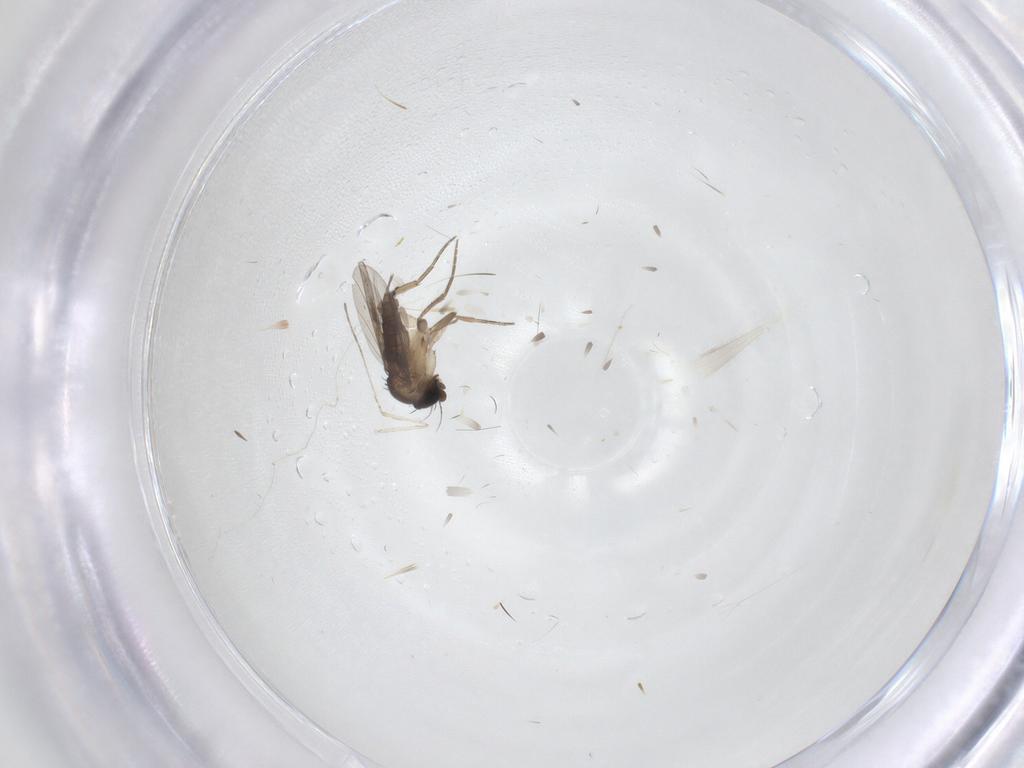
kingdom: Animalia
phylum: Arthropoda
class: Insecta
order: Diptera
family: Phoridae
